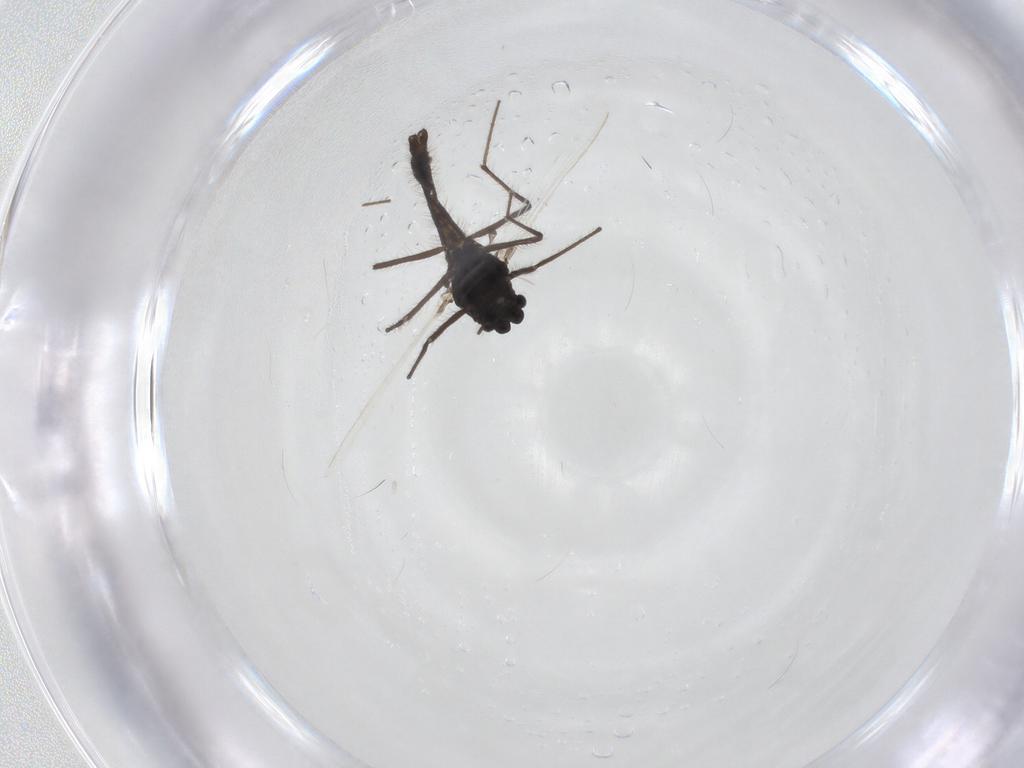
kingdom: Animalia
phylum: Arthropoda
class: Insecta
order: Diptera
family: Chironomidae
